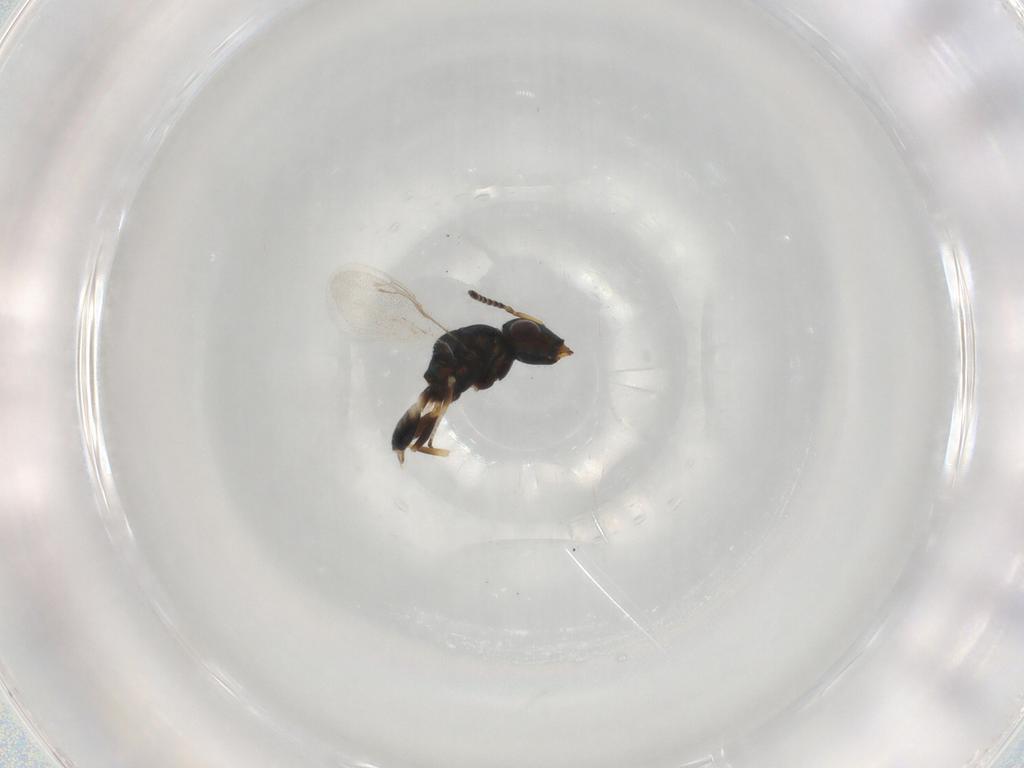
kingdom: Animalia
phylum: Arthropoda
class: Insecta
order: Hymenoptera
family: Pteromalidae
